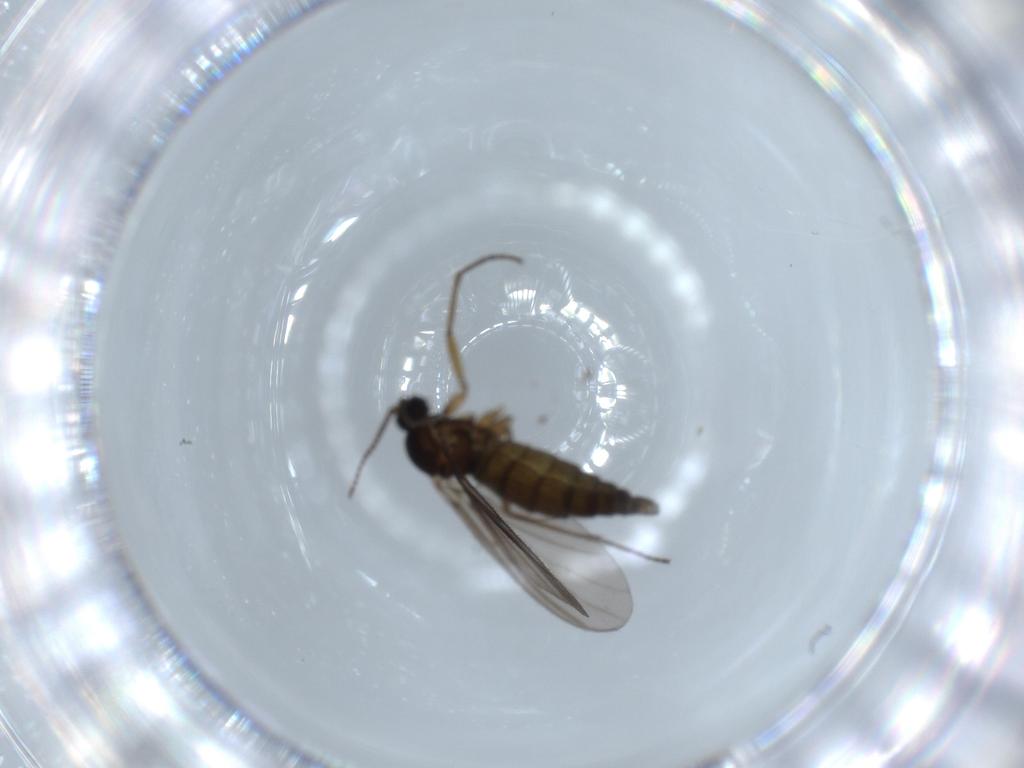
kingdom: Animalia
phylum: Arthropoda
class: Insecta
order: Diptera
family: Sciaridae
